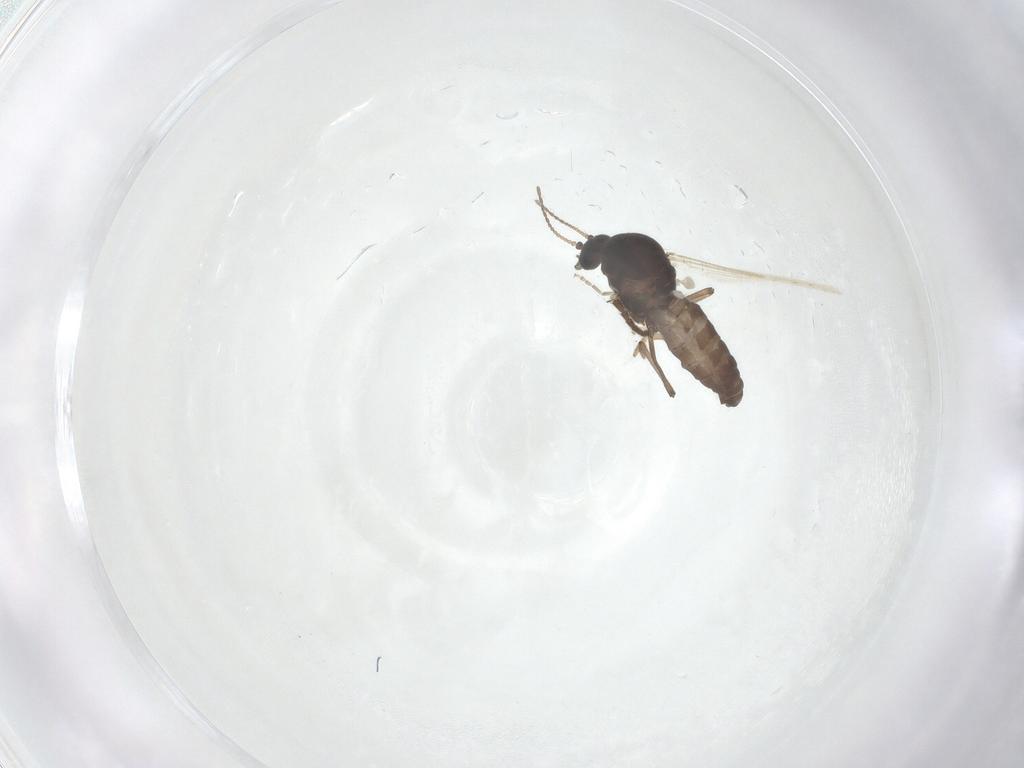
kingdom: Animalia
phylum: Arthropoda
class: Insecta
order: Diptera
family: Ceratopogonidae
